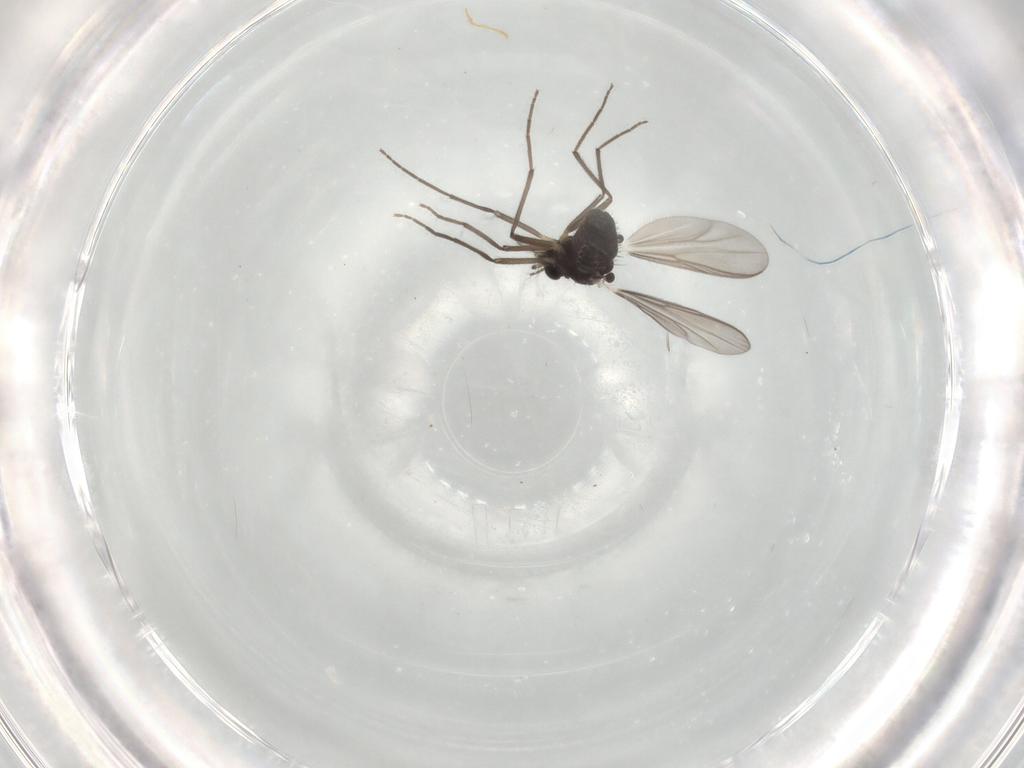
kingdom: Animalia
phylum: Arthropoda
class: Insecta
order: Diptera
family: Chironomidae
